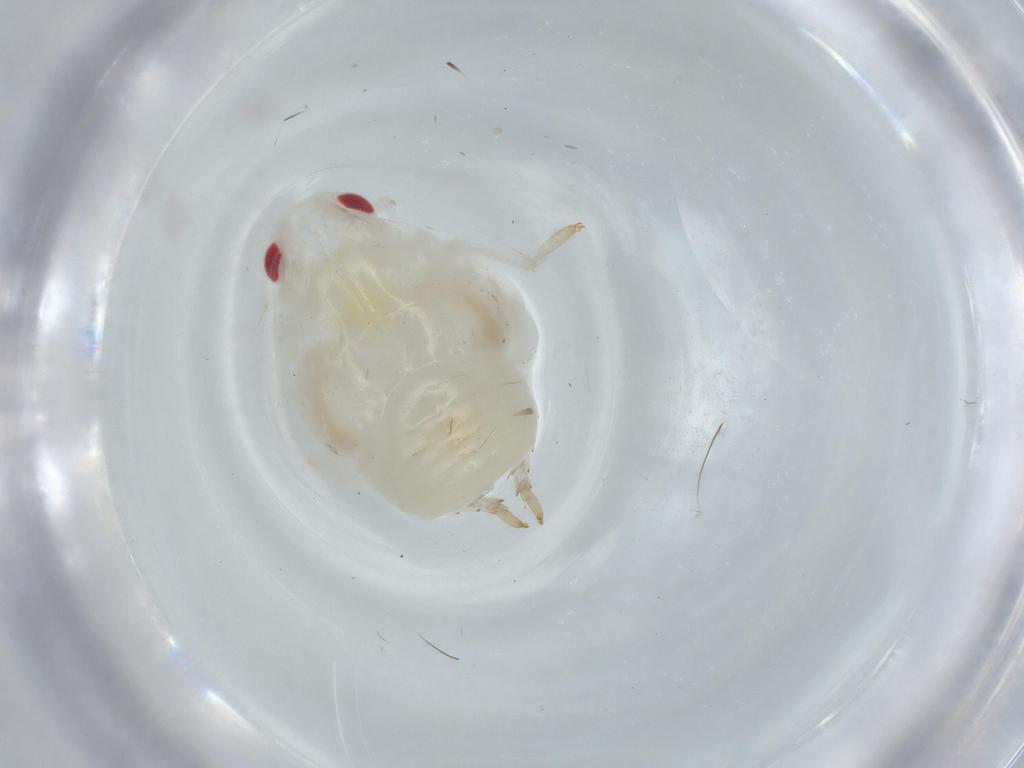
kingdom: Animalia
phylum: Arthropoda
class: Insecta
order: Hemiptera
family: Flatidae
